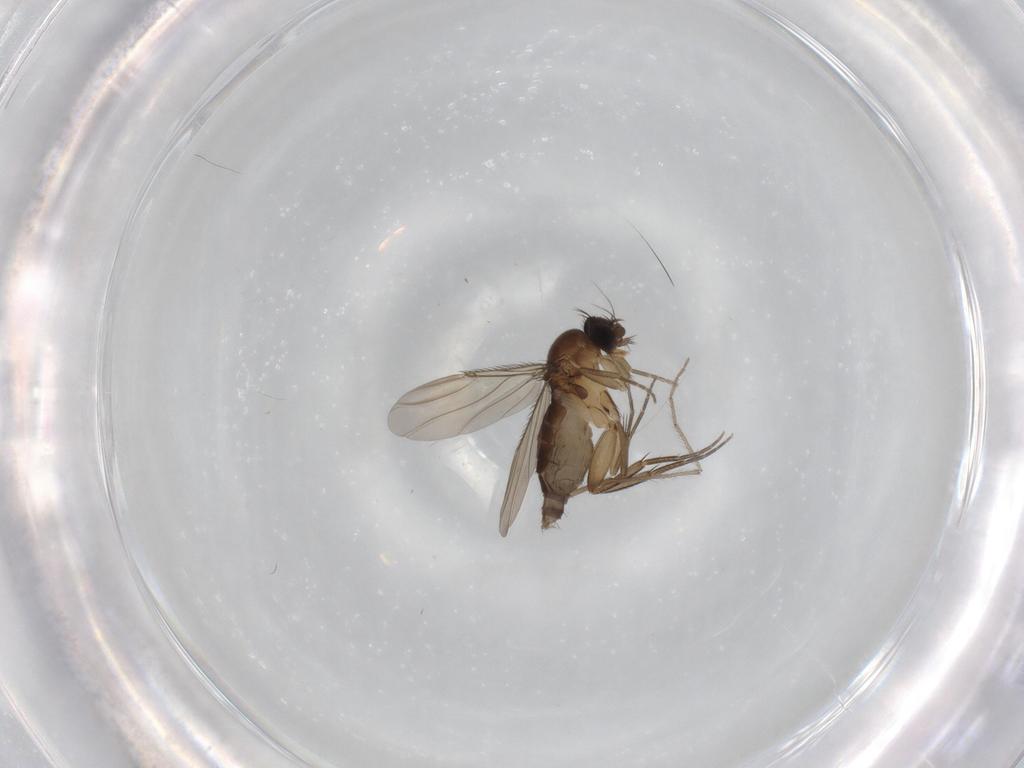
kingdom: Animalia
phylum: Arthropoda
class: Insecta
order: Diptera
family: Phoridae
